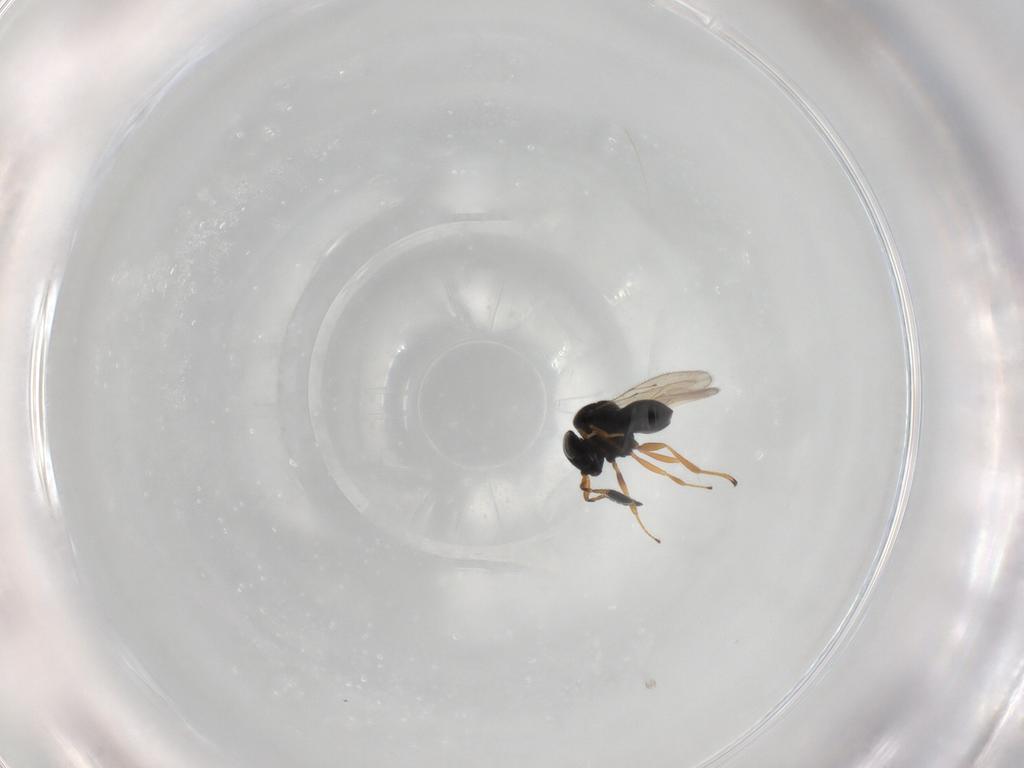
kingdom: Animalia
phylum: Arthropoda
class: Insecta
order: Hymenoptera
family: Scelionidae
